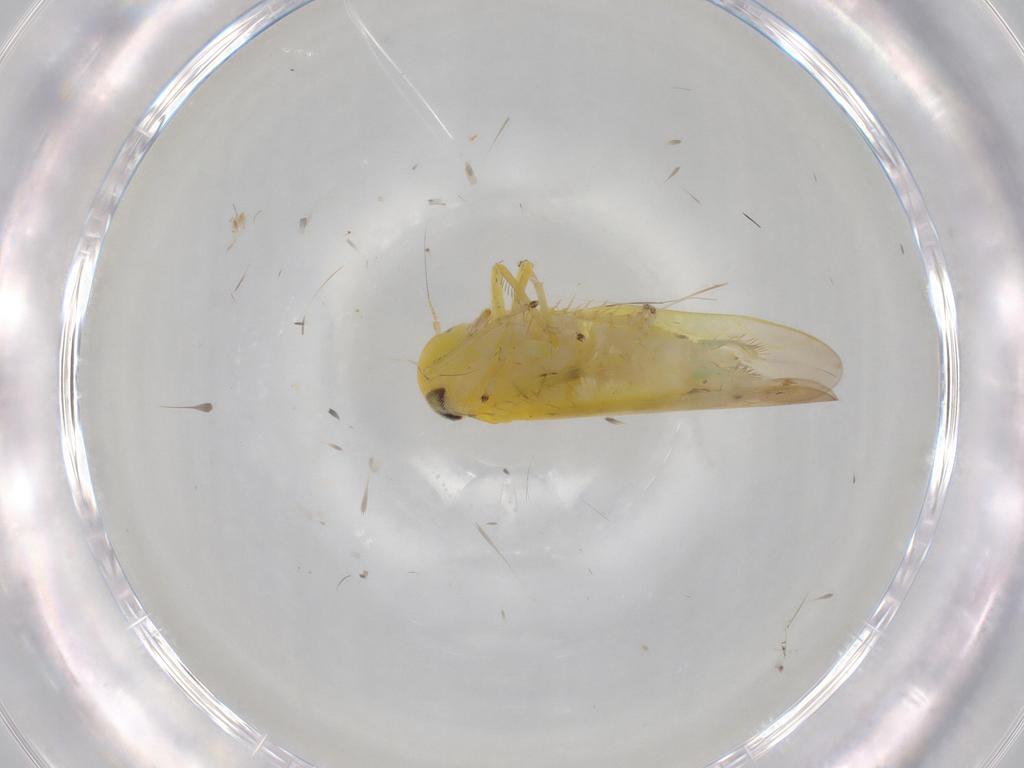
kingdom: Animalia
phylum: Arthropoda
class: Insecta
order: Hemiptera
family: Cicadellidae
